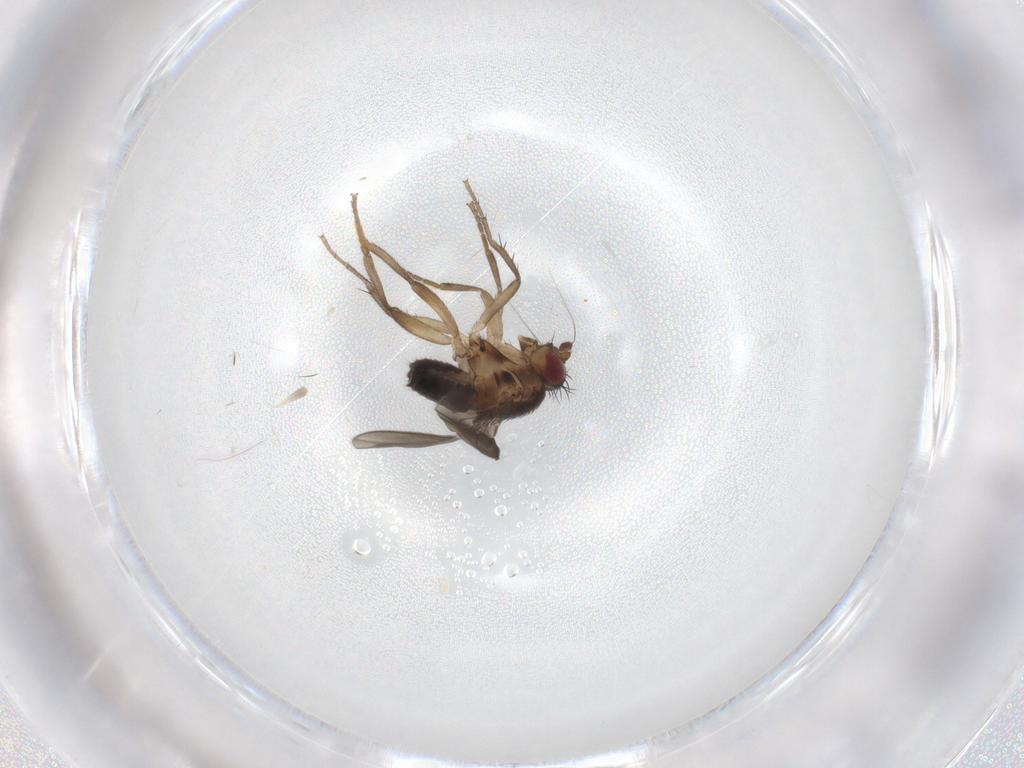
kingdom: Animalia
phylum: Arthropoda
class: Insecta
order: Diptera
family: Sphaeroceridae
